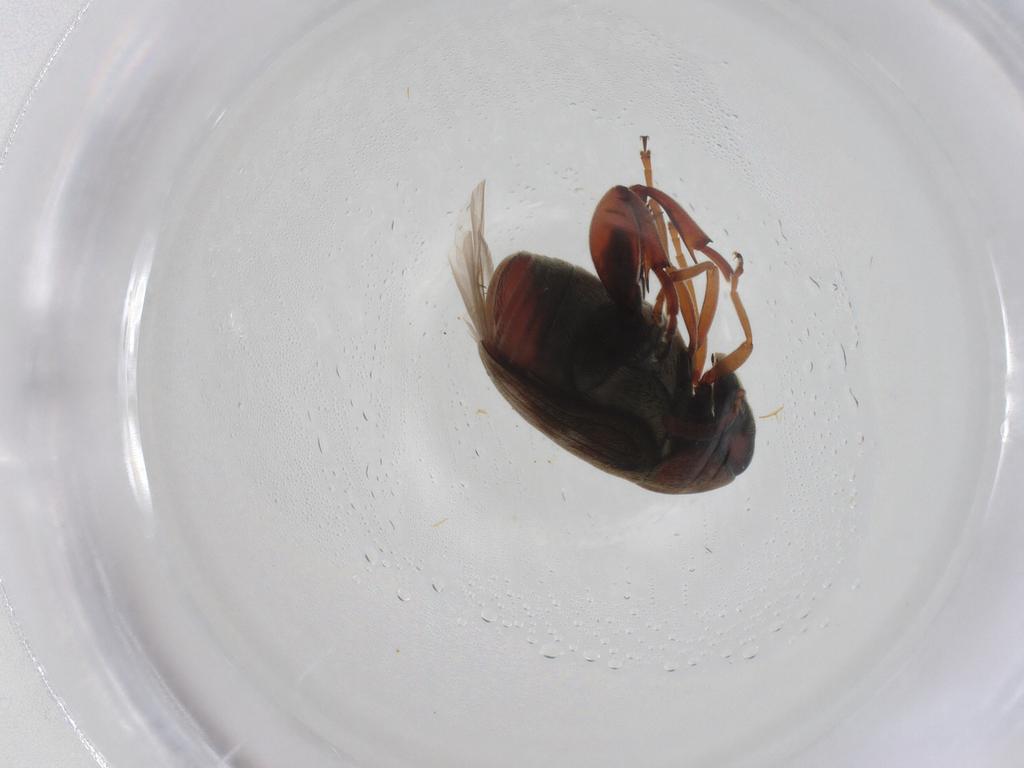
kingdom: Animalia
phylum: Arthropoda
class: Insecta
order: Coleoptera
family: Chrysomelidae
